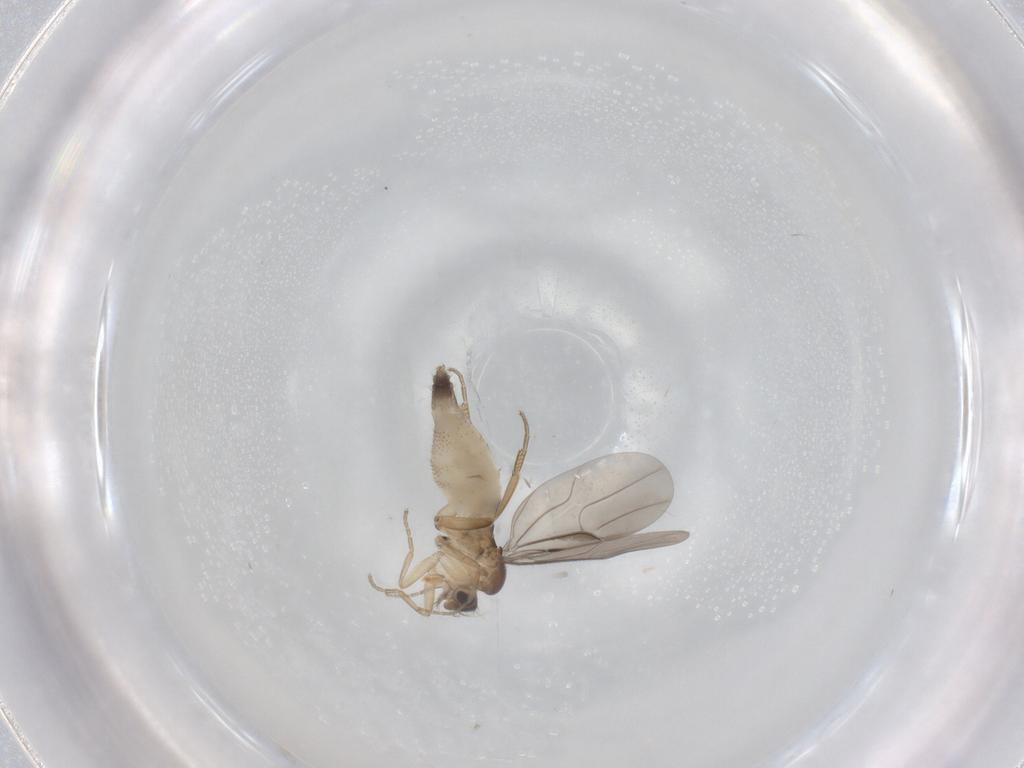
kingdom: Animalia
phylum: Arthropoda
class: Insecta
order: Diptera
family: Phoridae
